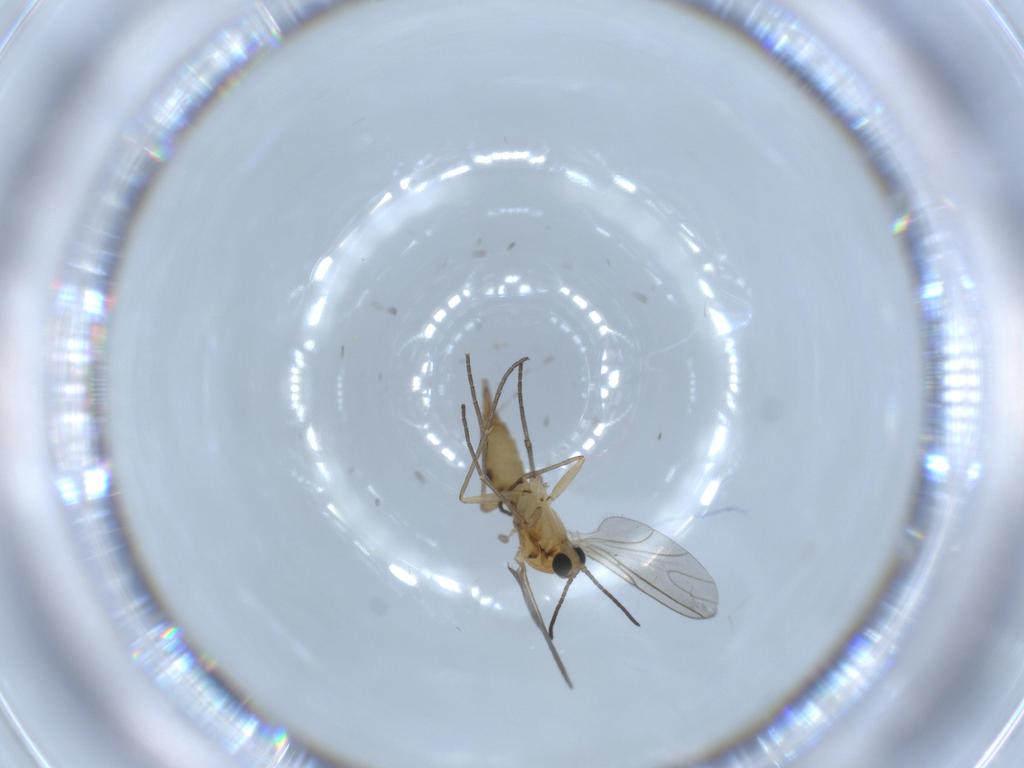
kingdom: Animalia
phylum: Arthropoda
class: Insecta
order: Diptera
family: Sciaridae
